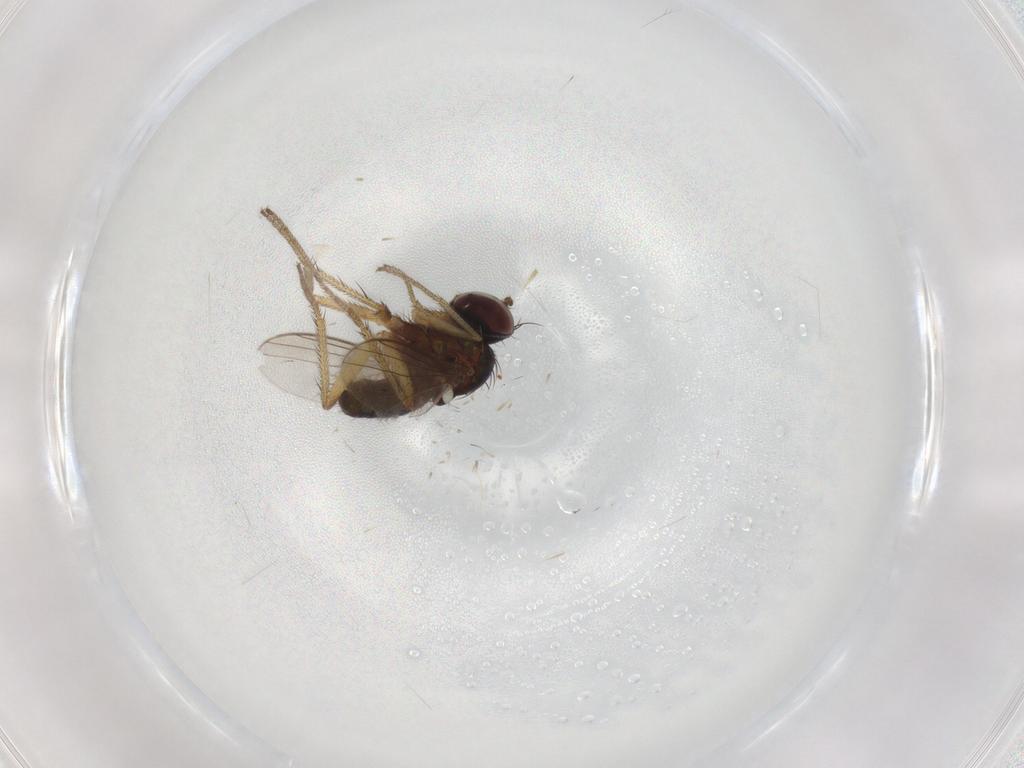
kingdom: Animalia
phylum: Arthropoda
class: Insecta
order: Diptera
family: Dolichopodidae
